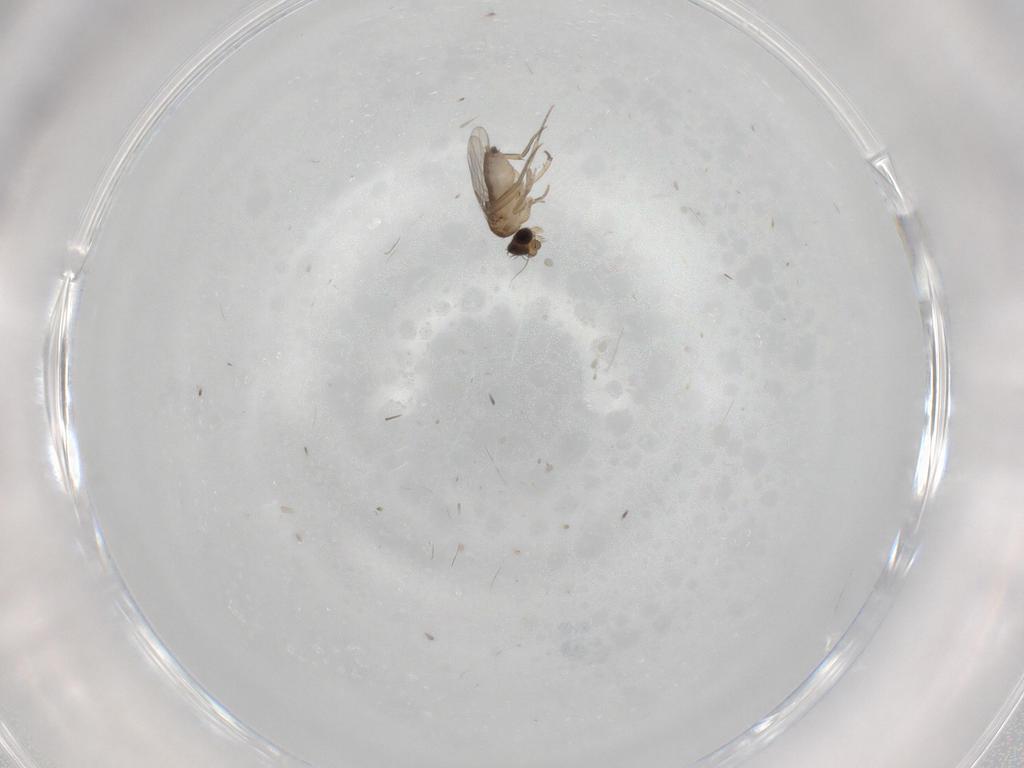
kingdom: Animalia
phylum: Arthropoda
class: Insecta
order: Diptera
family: Phoridae
